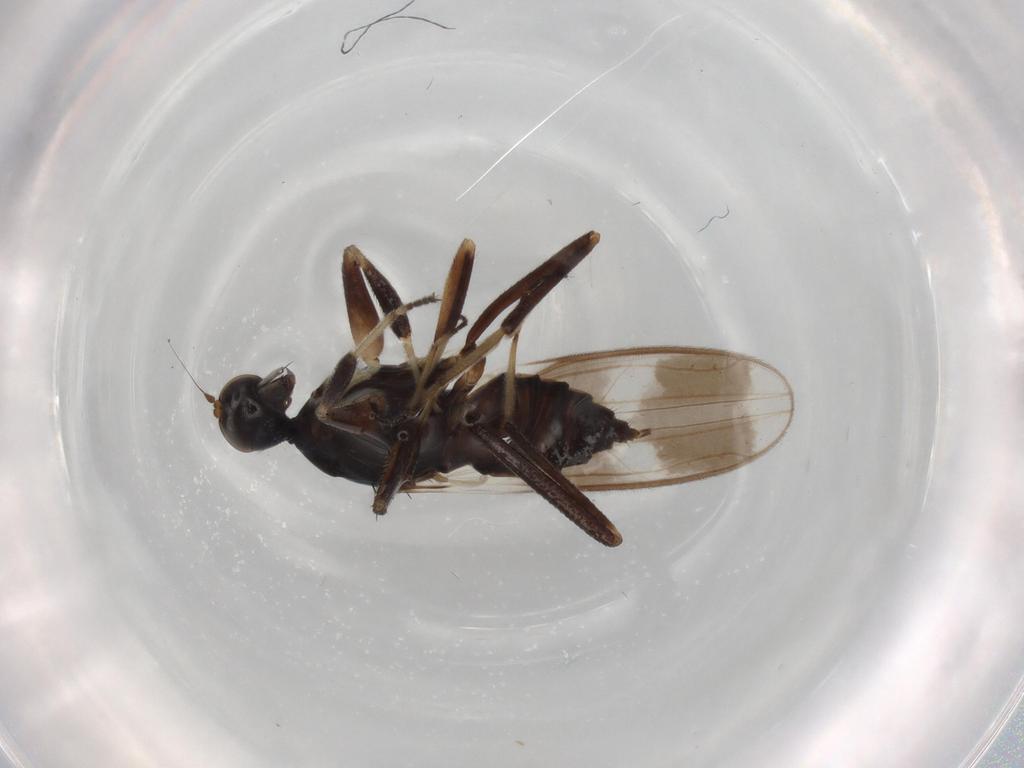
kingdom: Animalia
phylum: Arthropoda
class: Insecta
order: Diptera
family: Hybotidae
